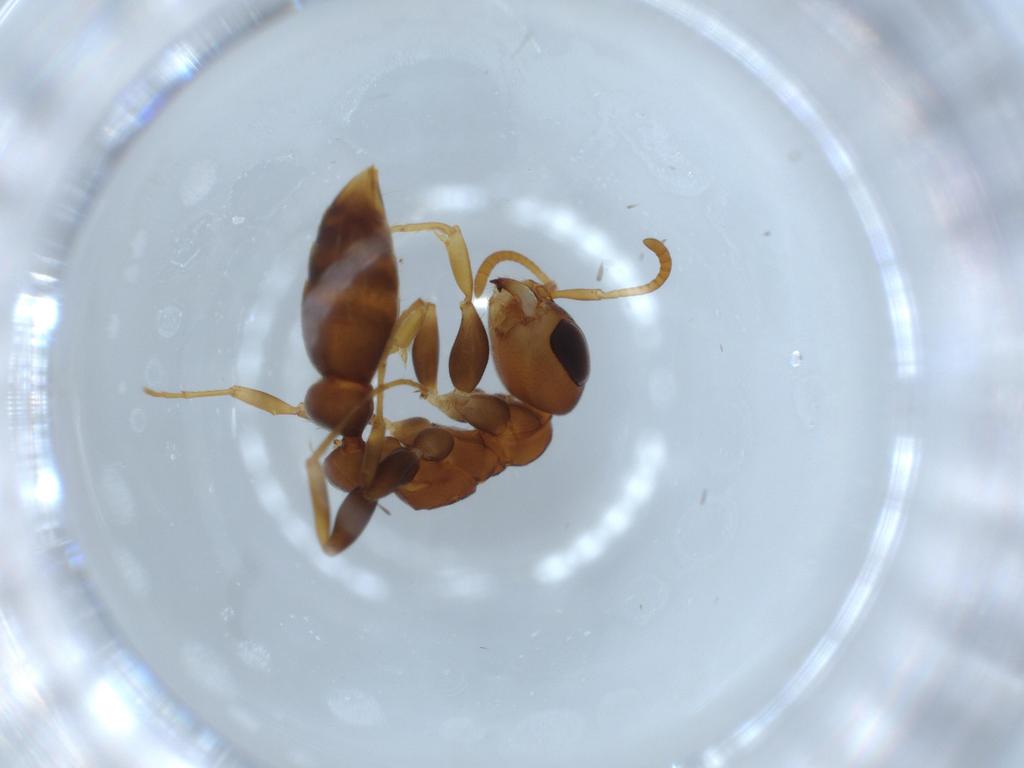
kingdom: Animalia
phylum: Arthropoda
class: Insecta
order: Hymenoptera
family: Formicidae
